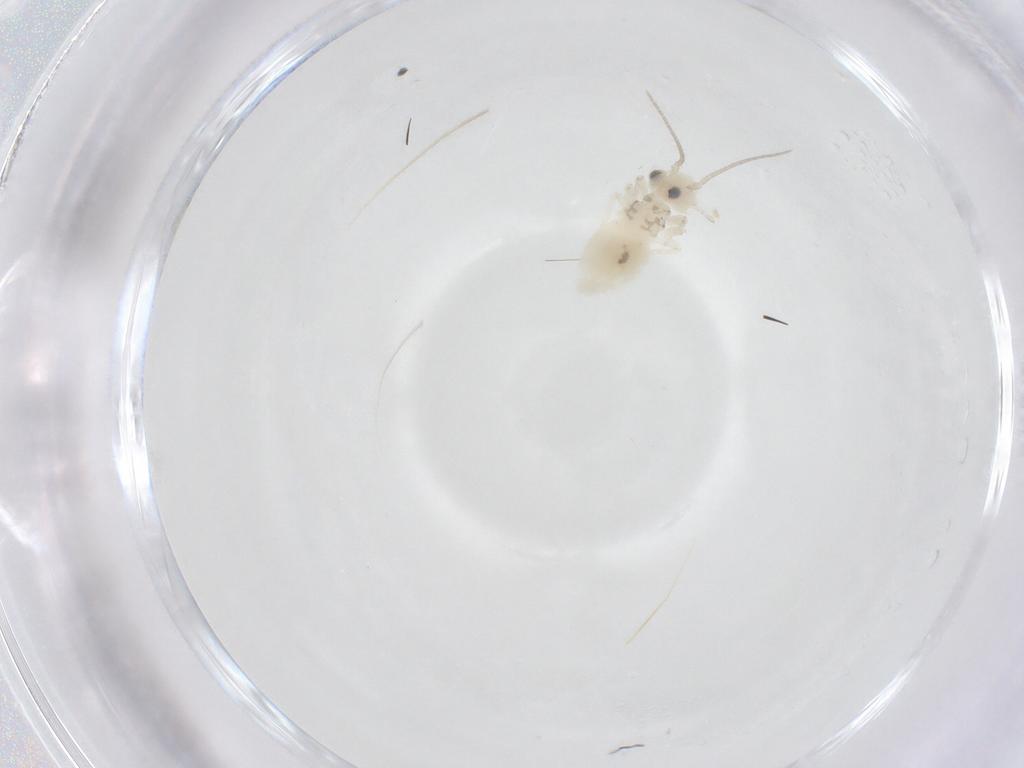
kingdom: Animalia
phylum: Arthropoda
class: Insecta
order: Psocodea
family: Caeciliusidae
